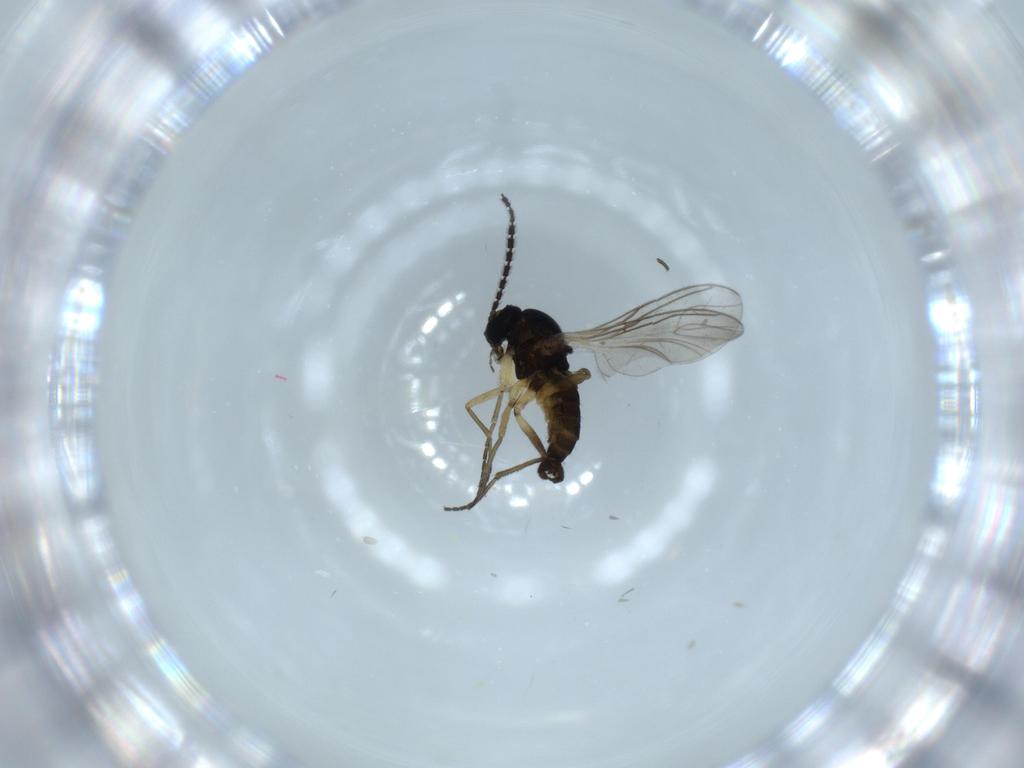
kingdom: Animalia
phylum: Arthropoda
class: Insecta
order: Diptera
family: Sciaridae
